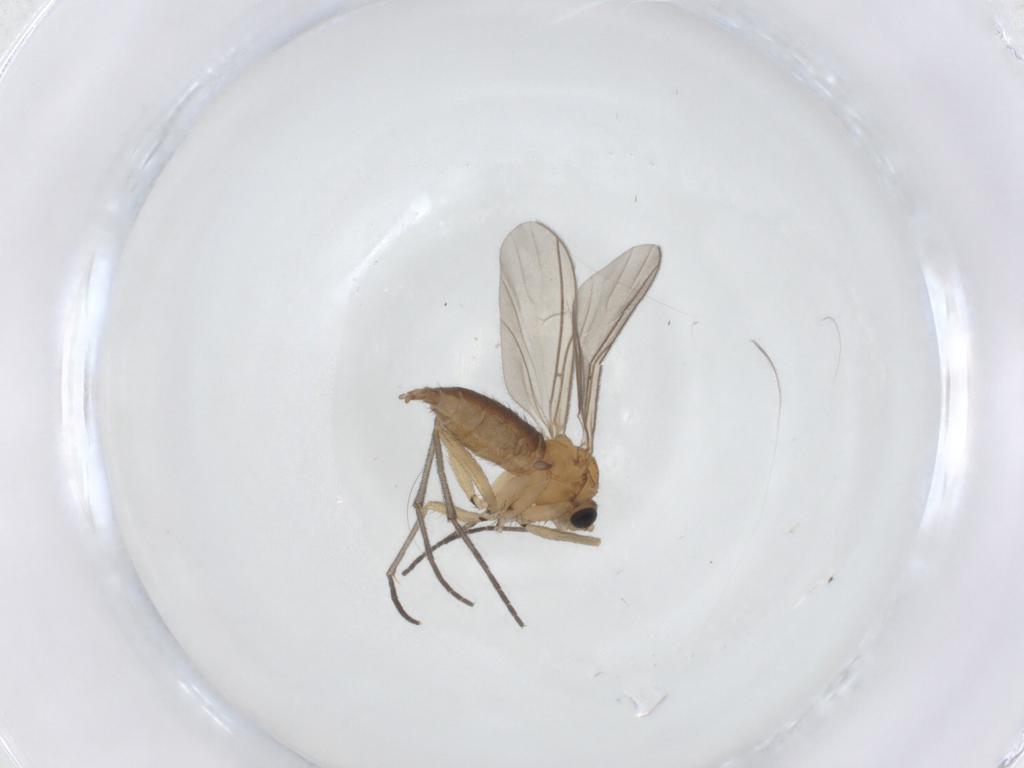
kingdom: Animalia
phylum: Arthropoda
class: Insecta
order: Diptera
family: Sciaridae
